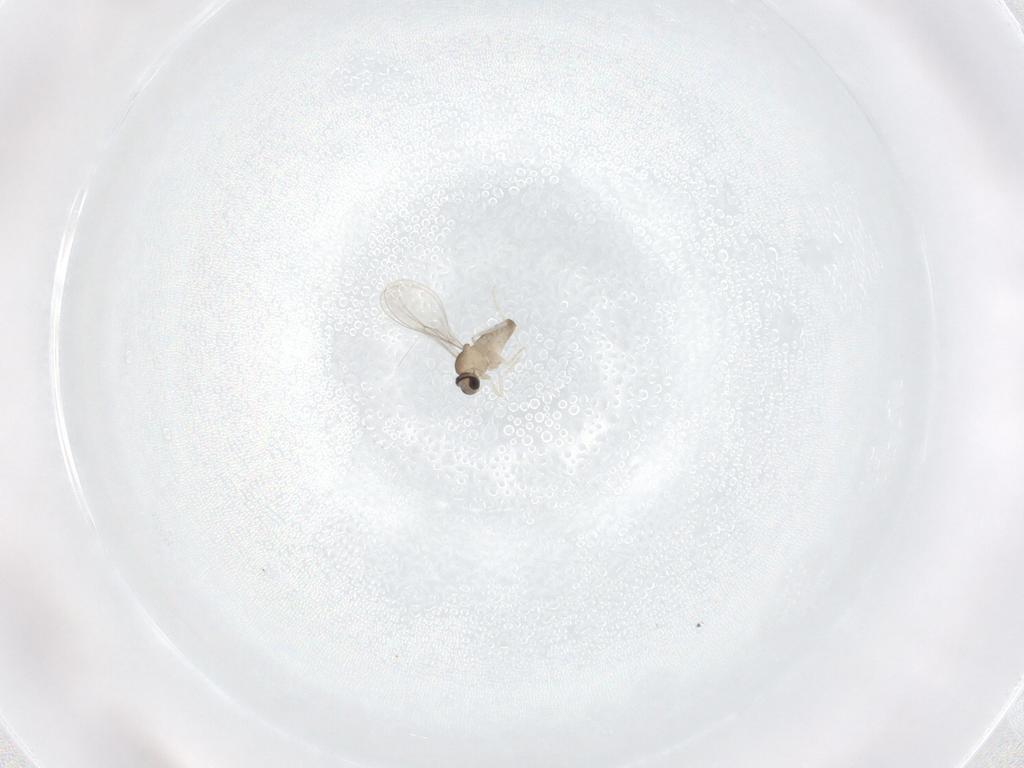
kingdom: Animalia
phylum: Arthropoda
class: Insecta
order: Diptera
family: Cecidomyiidae
